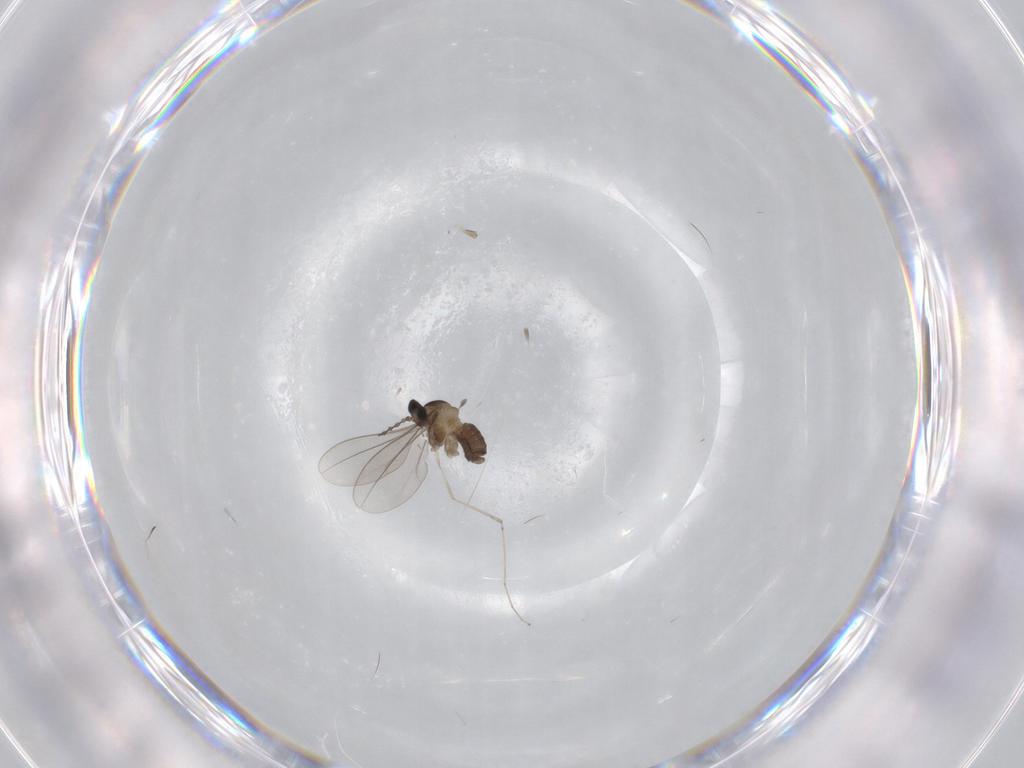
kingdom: Animalia
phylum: Arthropoda
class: Insecta
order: Diptera
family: Cecidomyiidae
